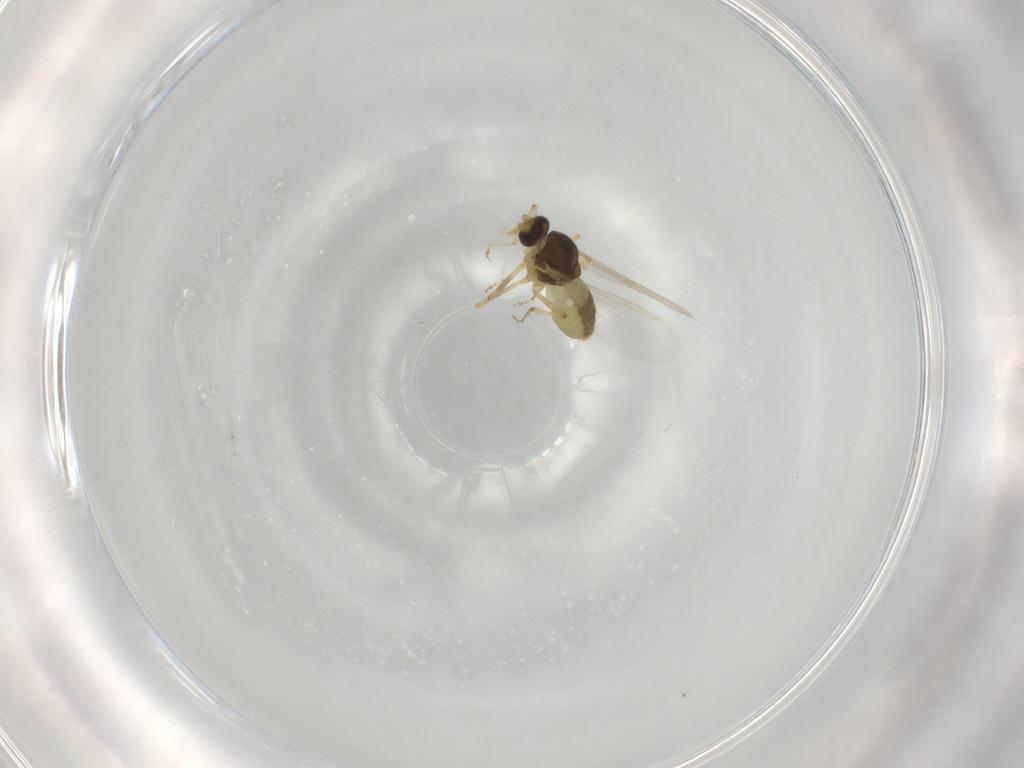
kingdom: Animalia
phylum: Arthropoda
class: Insecta
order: Diptera
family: Ceratopogonidae
